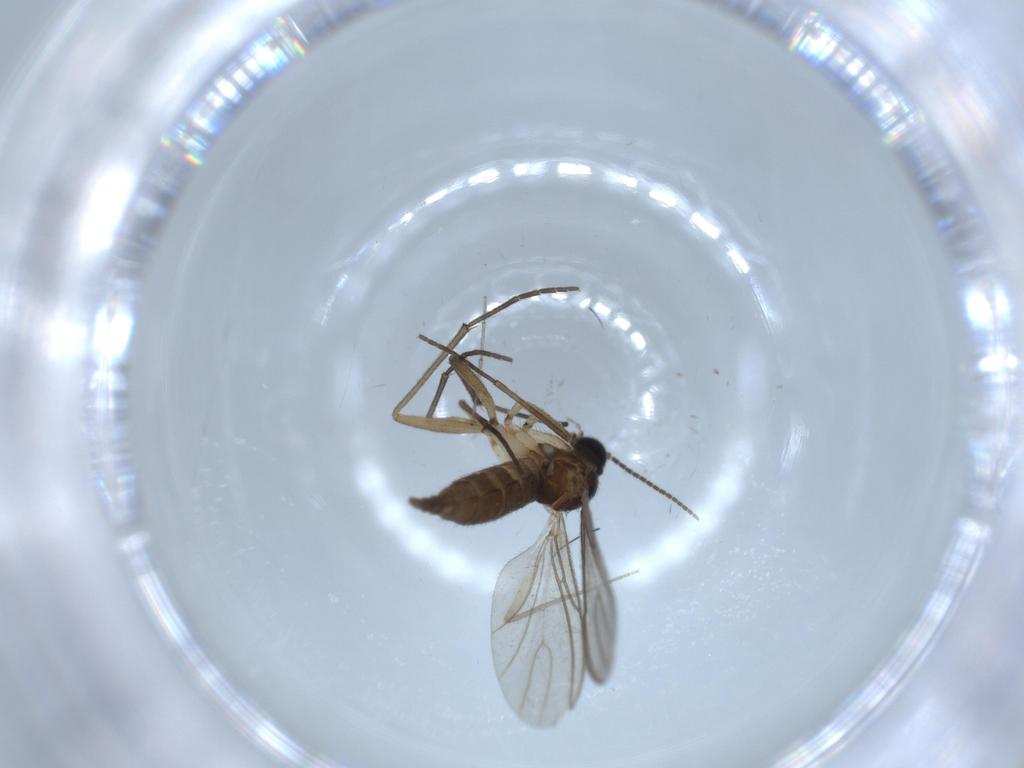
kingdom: Animalia
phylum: Arthropoda
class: Insecta
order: Diptera
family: Sciaridae
